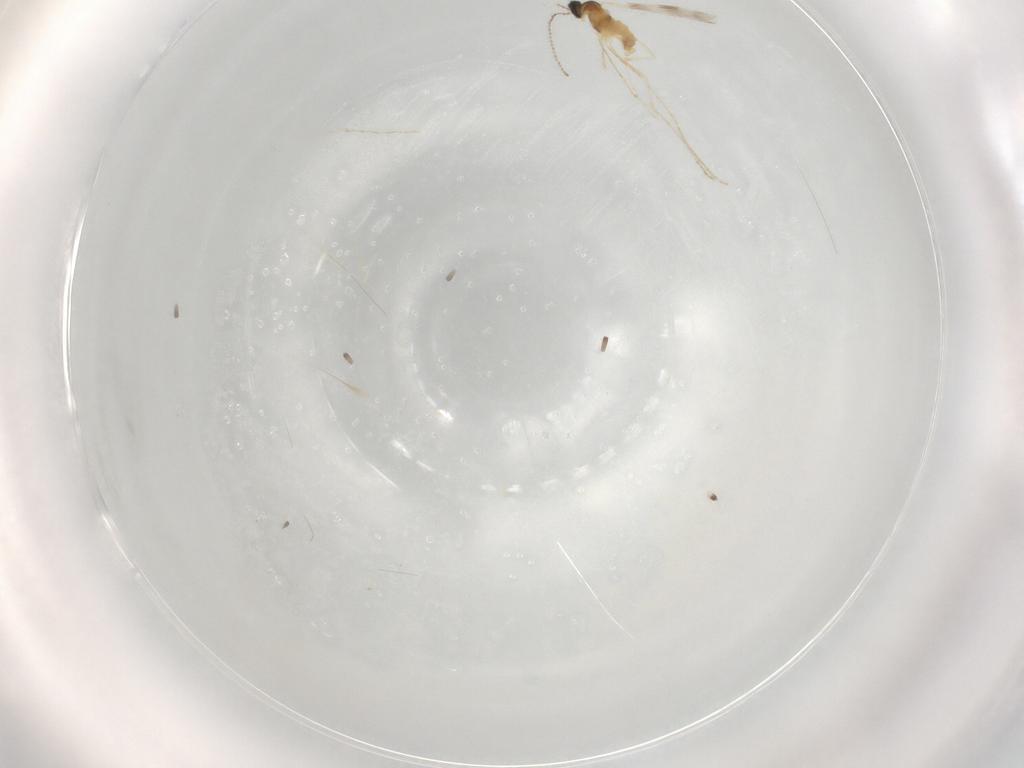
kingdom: Animalia
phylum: Arthropoda
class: Insecta
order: Diptera
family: Cecidomyiidae
